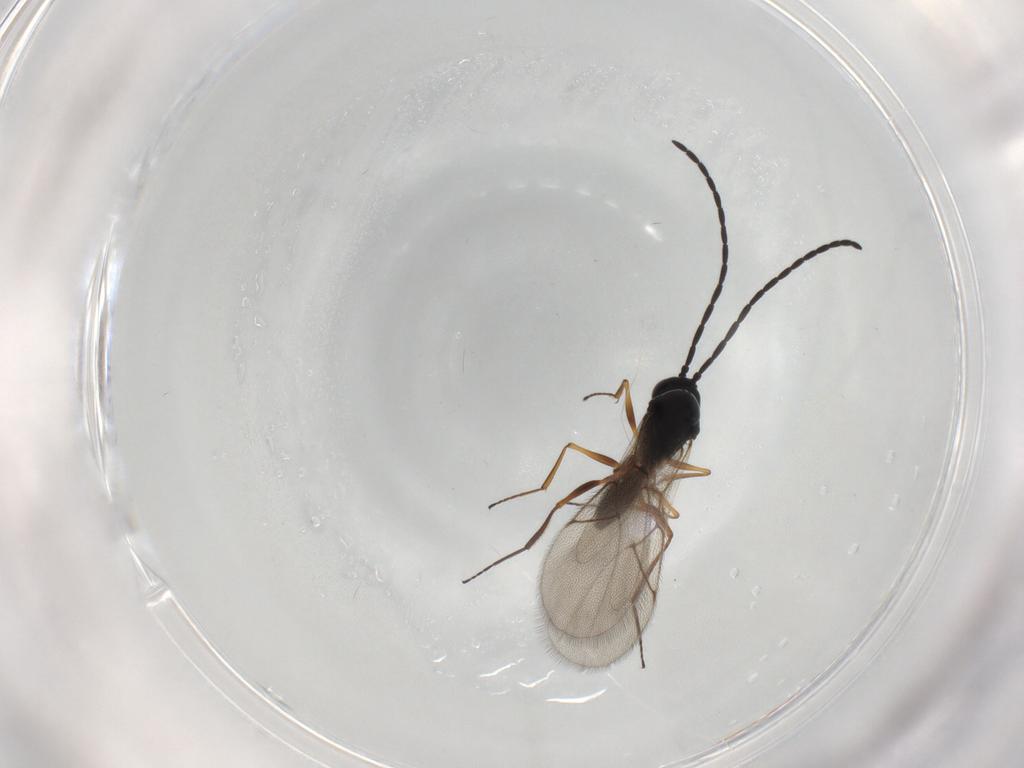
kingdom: Animalia
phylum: Arthropoda
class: Insecta
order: Hymenoptera
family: Figitidae
